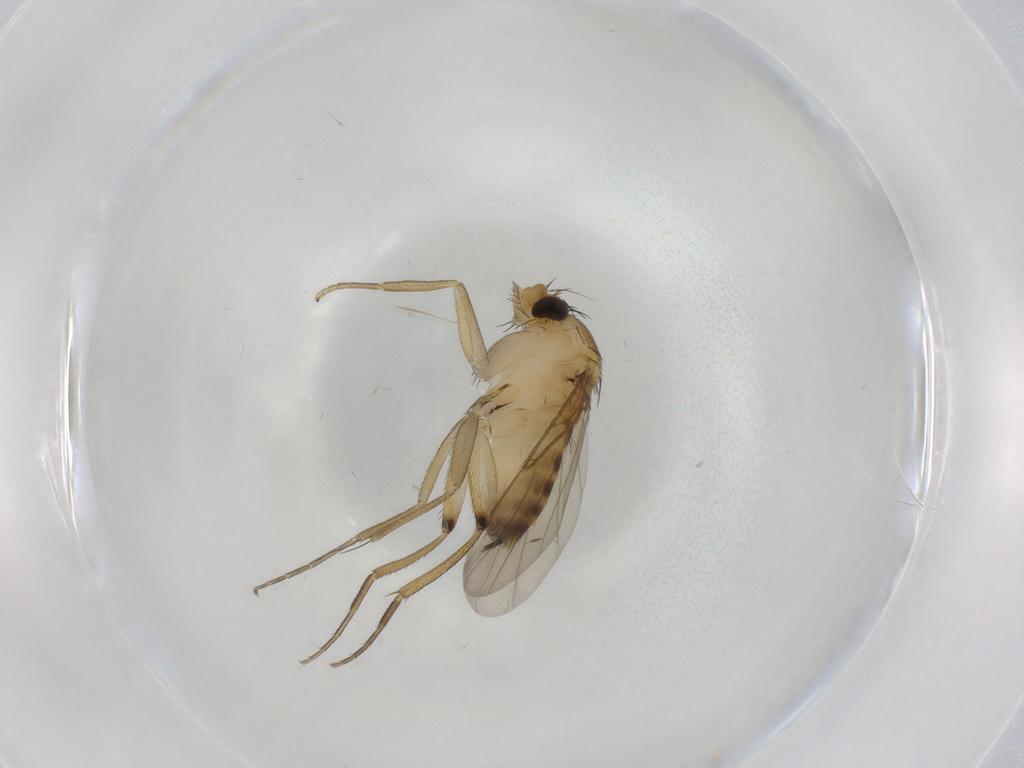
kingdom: Animalia
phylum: Arthropoda
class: Insecta
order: Diptera
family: Phoridae
